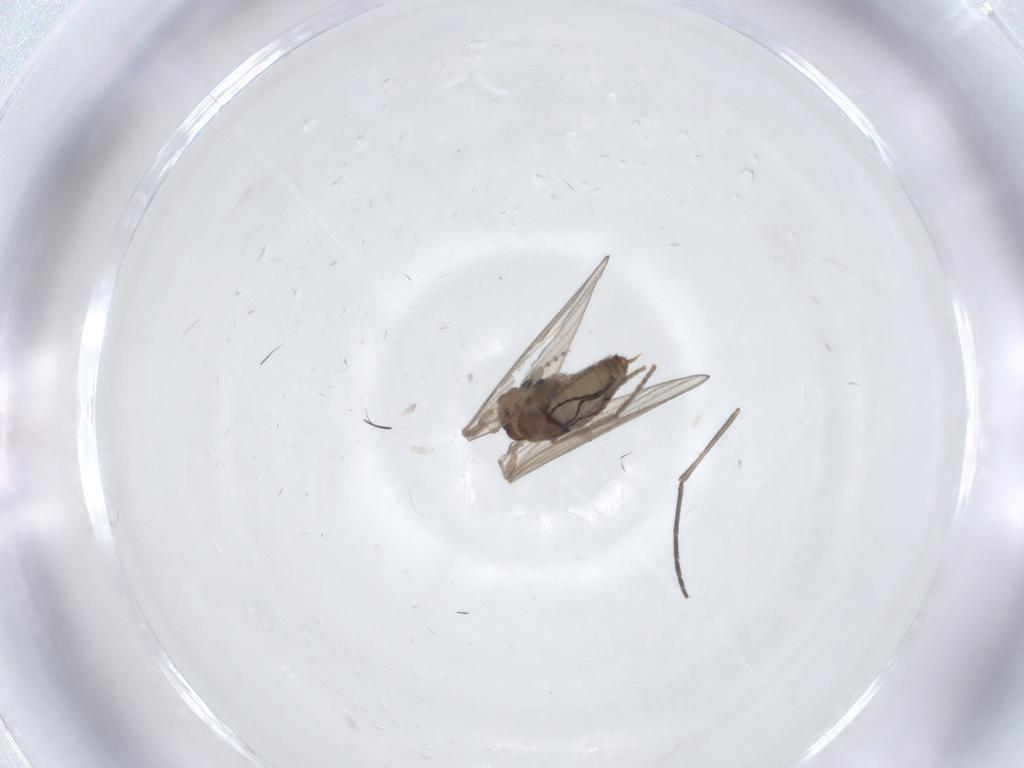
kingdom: Animalia
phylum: Arthropoda
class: Insecta
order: Diptera
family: Psychodidae
